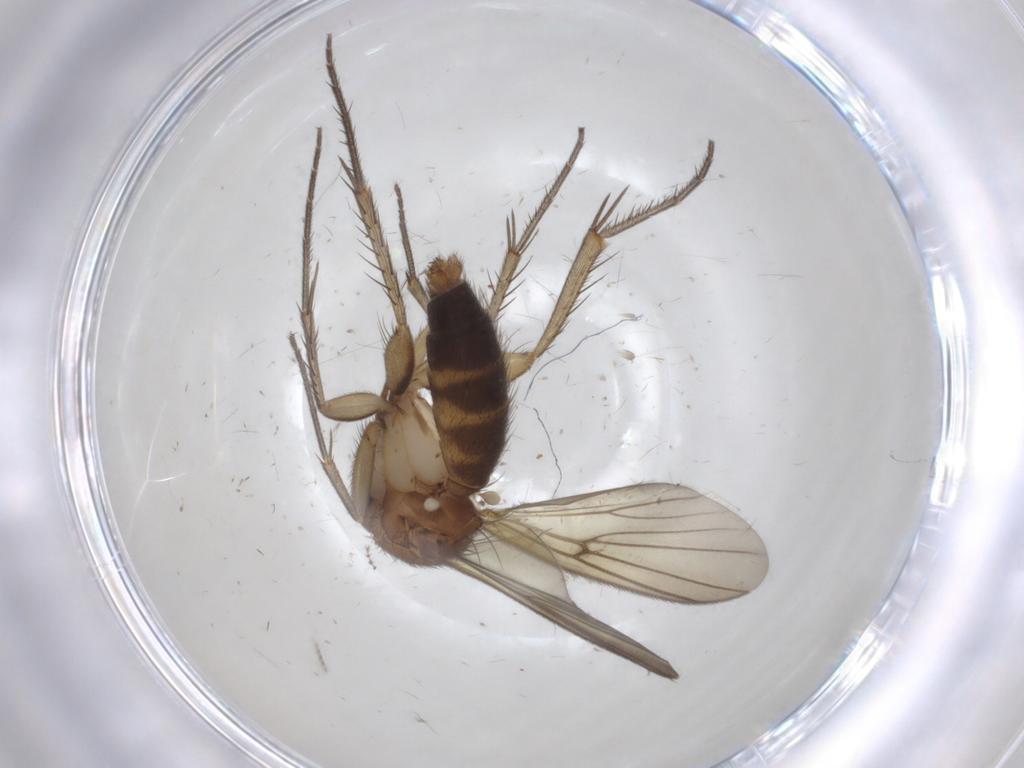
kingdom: Animalia
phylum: Arthropoda
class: Insecta
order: Diptera
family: Mycetophilidae
